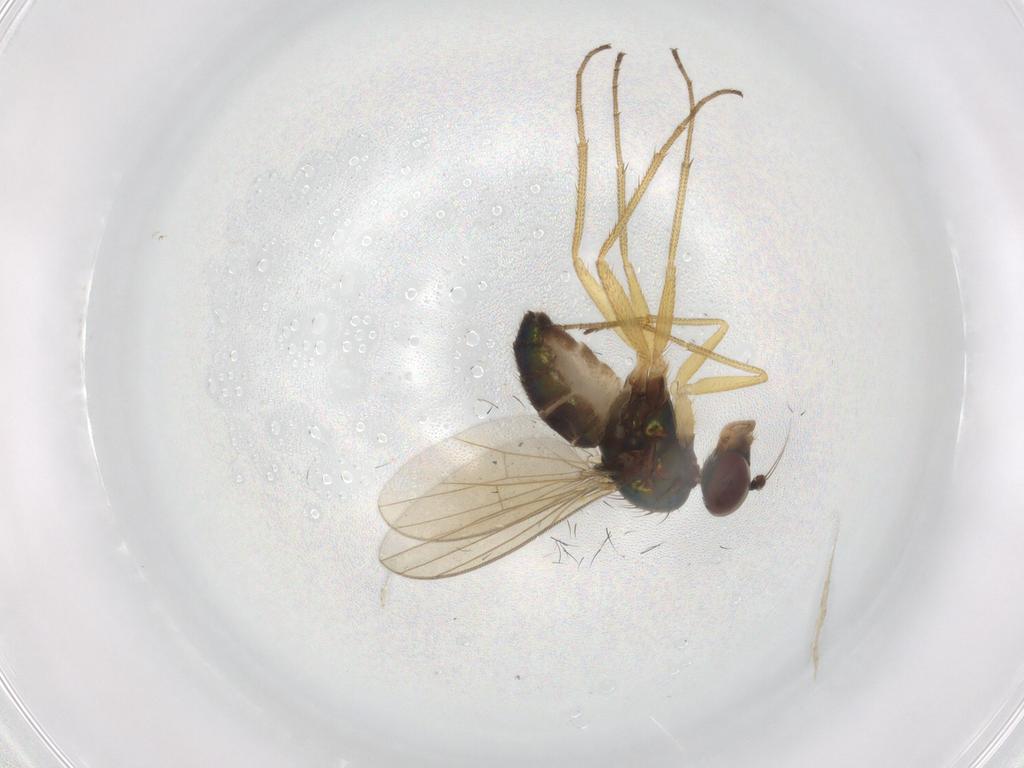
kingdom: Animalia
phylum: Arthropoda
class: Insecta
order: Diptera
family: Dolichopodidae
